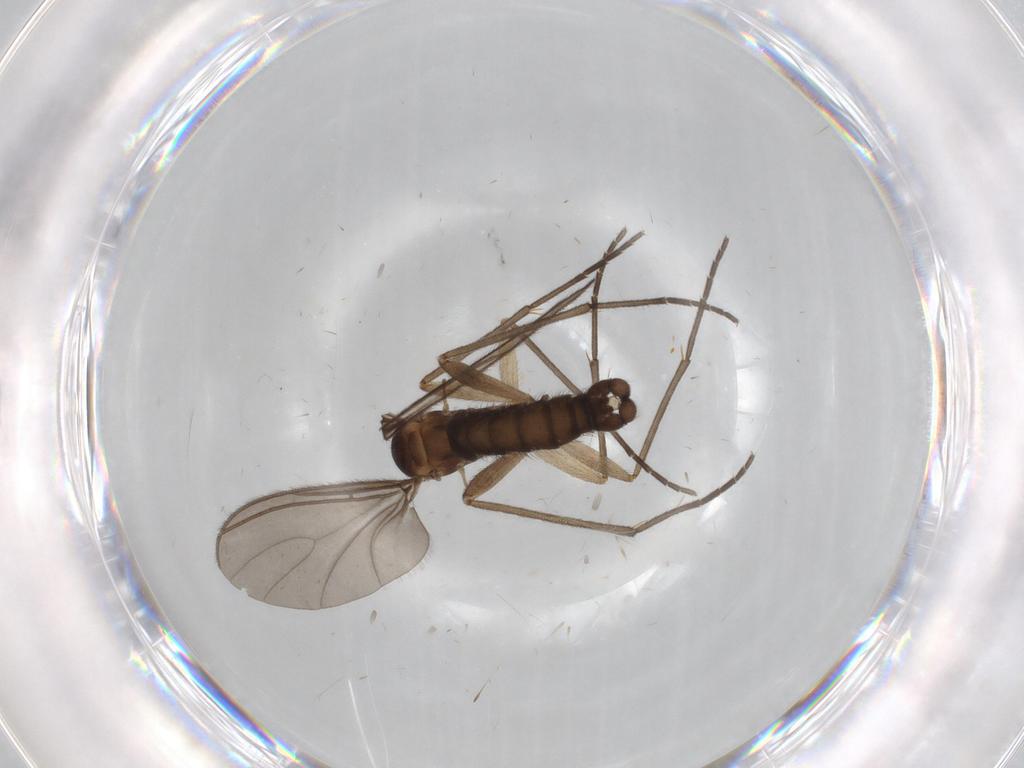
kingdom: Animalia
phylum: Arthropoda
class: Insecta
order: Diptera
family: Sciaridae
